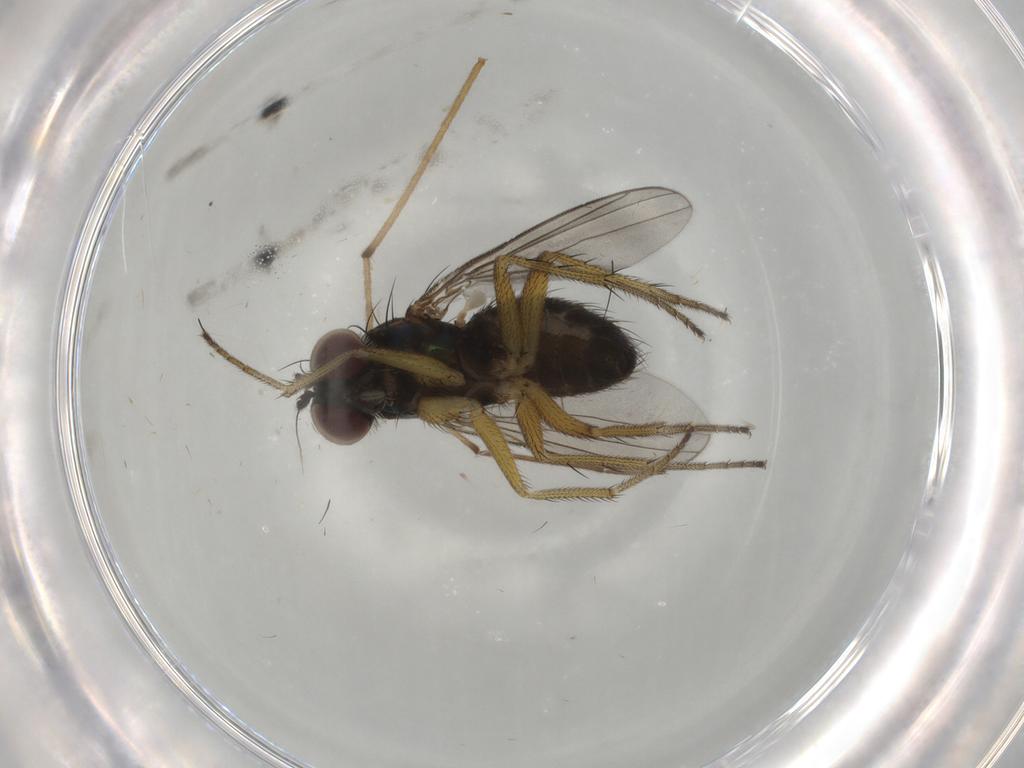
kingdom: Animalia
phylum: Arthropoda
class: Insecta
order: Diptera
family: Dolichopodidae
